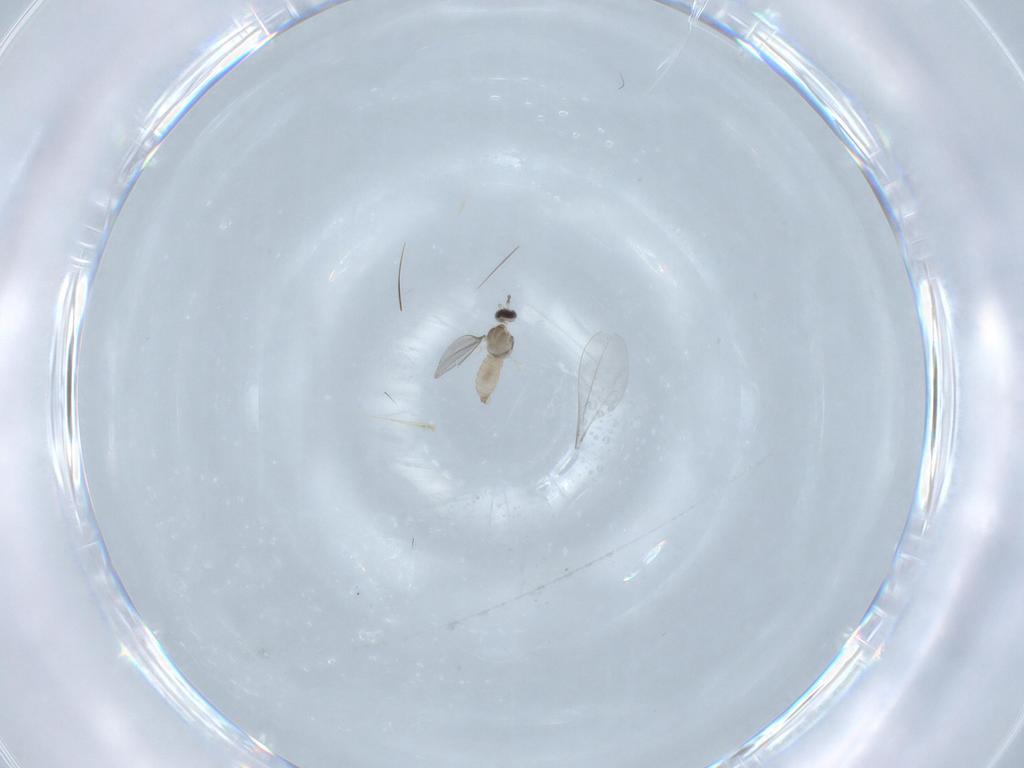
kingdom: Animalia
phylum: Arthropoda
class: Insecta
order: Diptera
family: Cecidomyiidae
